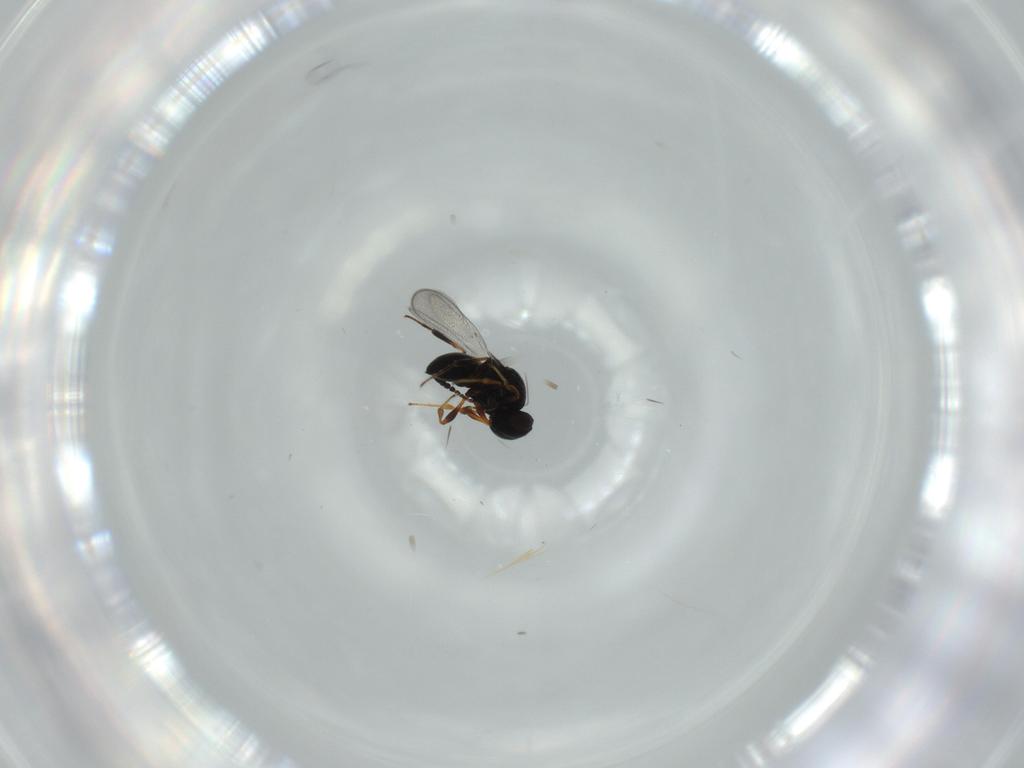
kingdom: Animalia
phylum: Arthropoda
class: Insecta
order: Hymenoptera
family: Platygastridae
